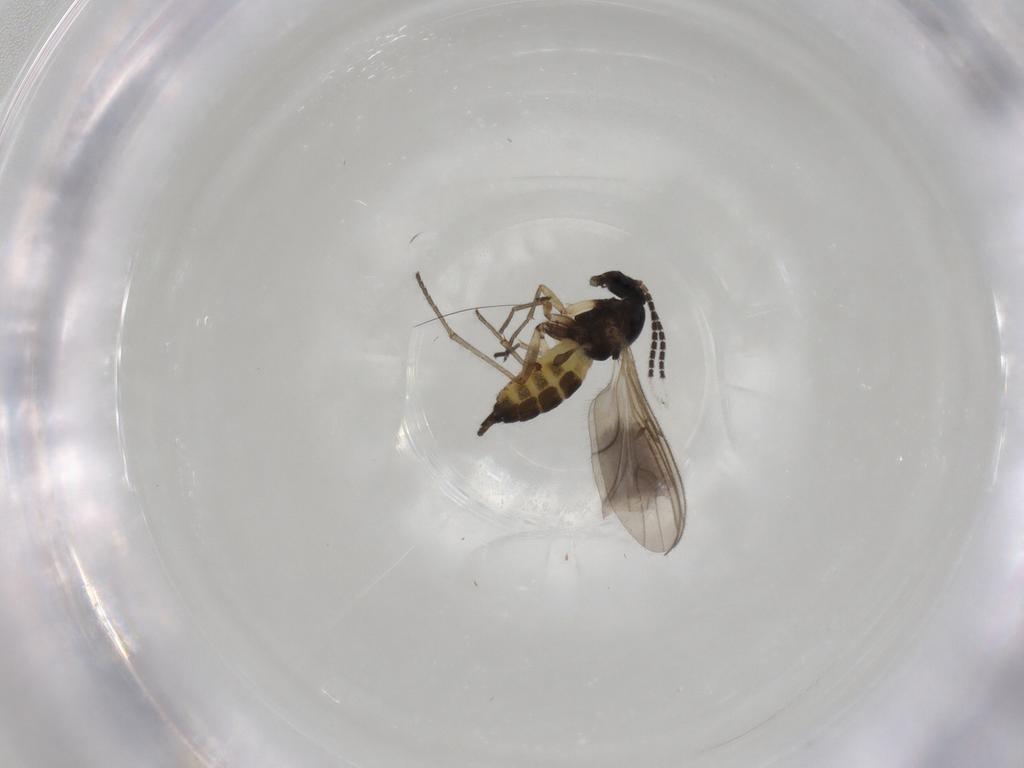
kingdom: Animalia
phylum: Arthropoda
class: Insecta
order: Diptera
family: Sciaridae
